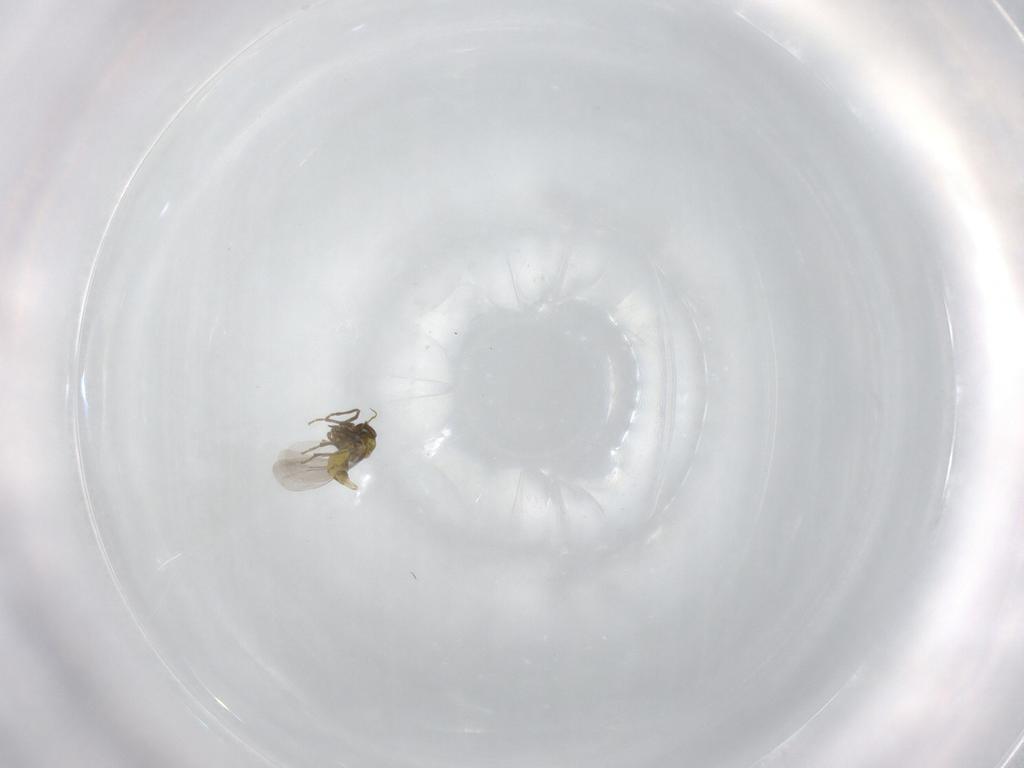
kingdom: Animalia
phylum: Arthropoda
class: Insecta
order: Hemiptera
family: Aleyrodidae
